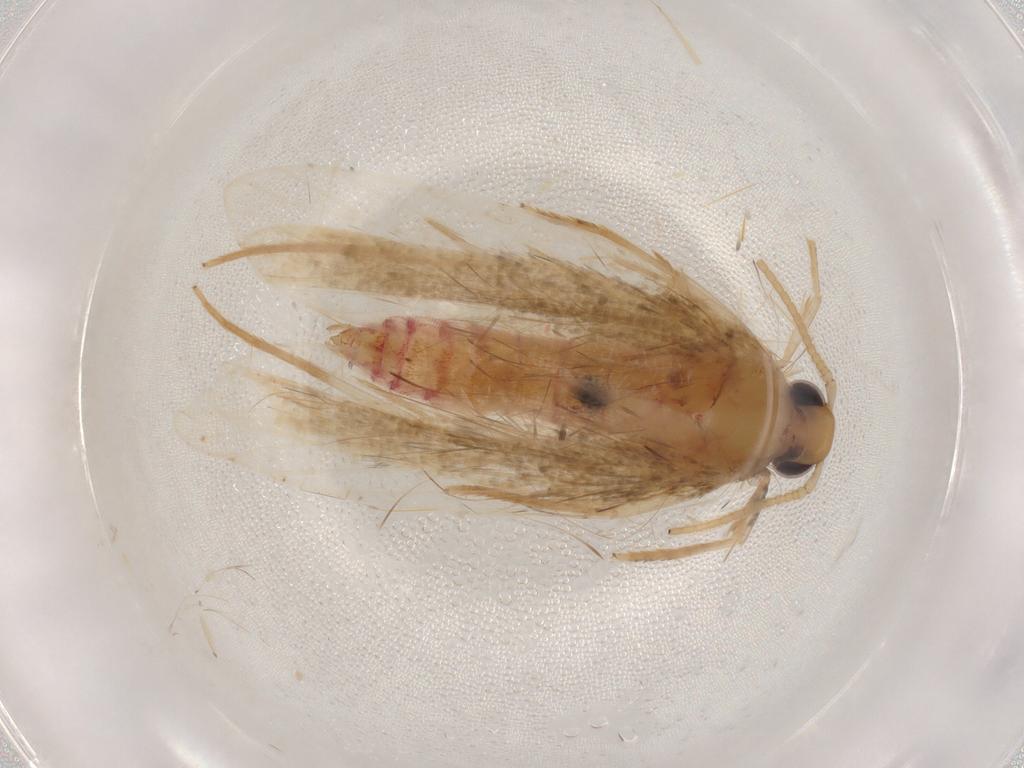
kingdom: Animalia
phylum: Arthropoda
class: Insecta
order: Lepidoptera
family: Lecithoceridae
